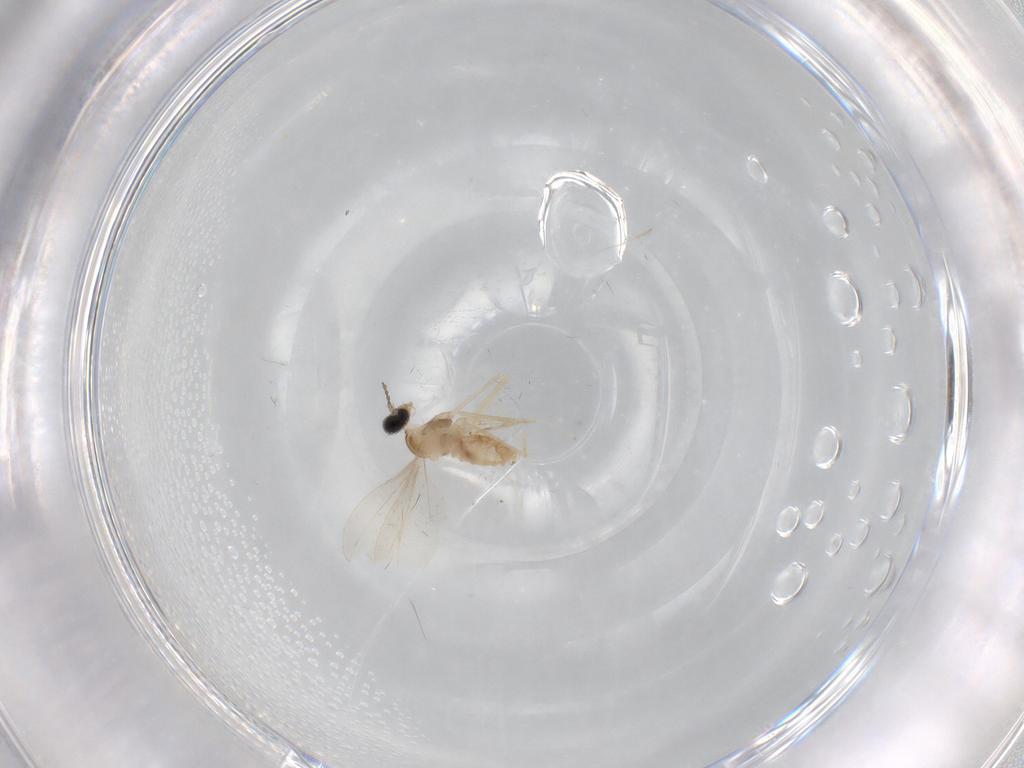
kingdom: Animalia
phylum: Arthropoda
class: Insecta
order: Diptera
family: Cecidomyiidae
